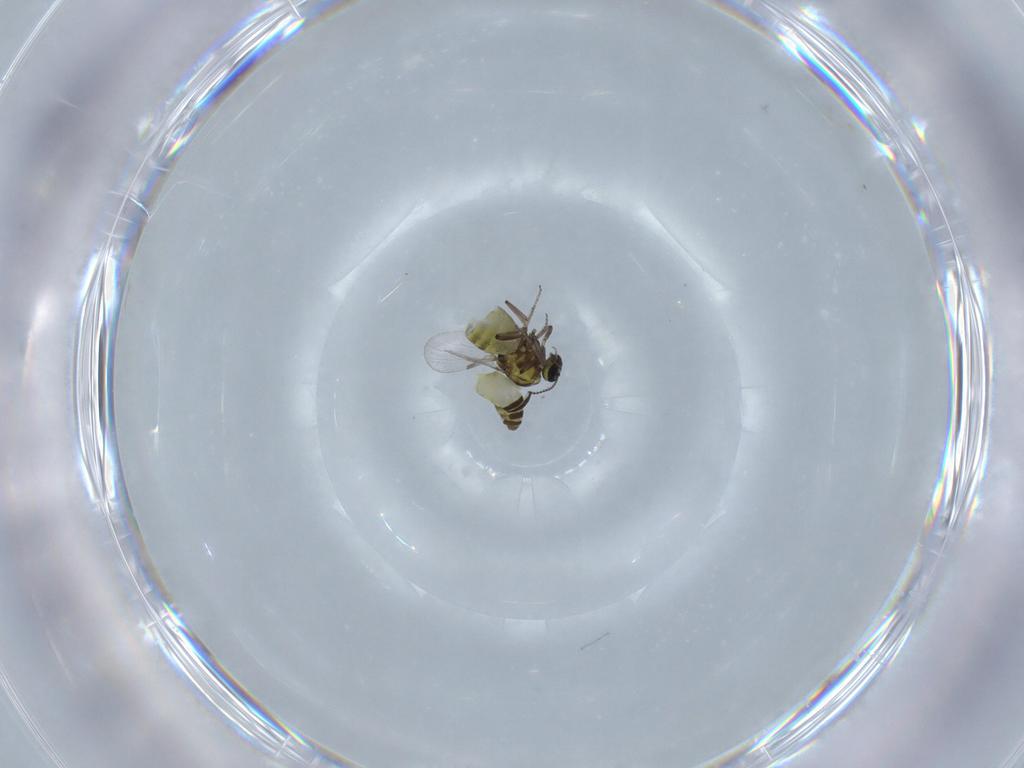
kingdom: Animalia
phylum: Arthropoda
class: Insecta
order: Diptera
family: Ceratopogonidae
